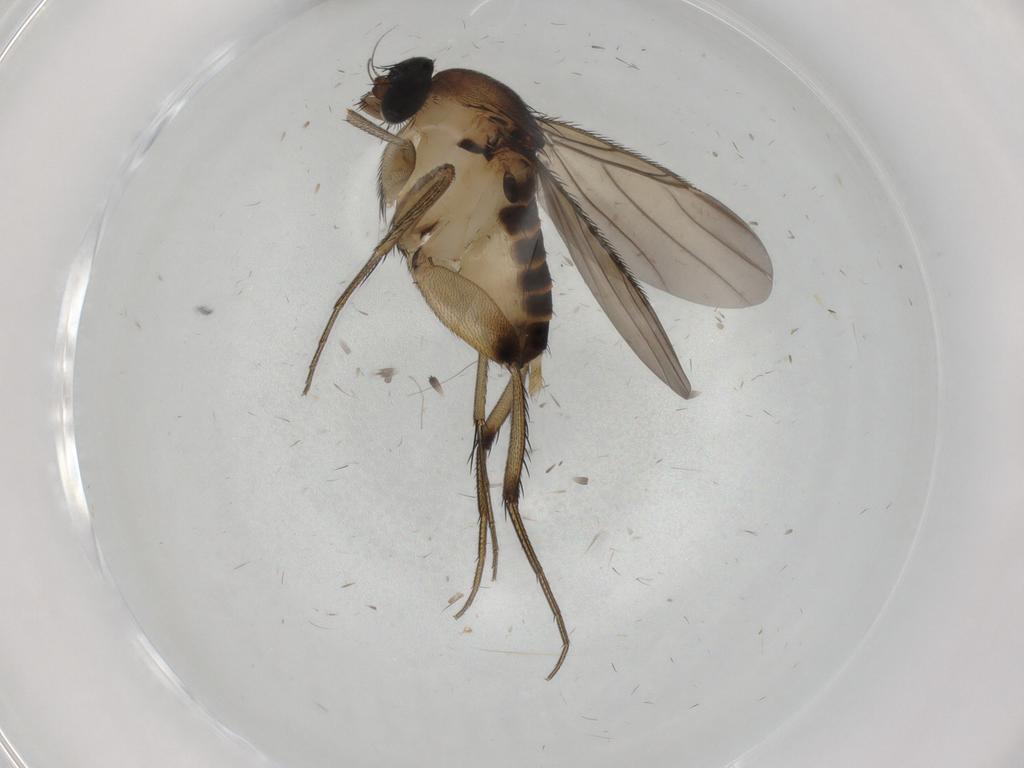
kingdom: Animalia
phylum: Arthropoda
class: Insecta
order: Diptera
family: Phoridae
